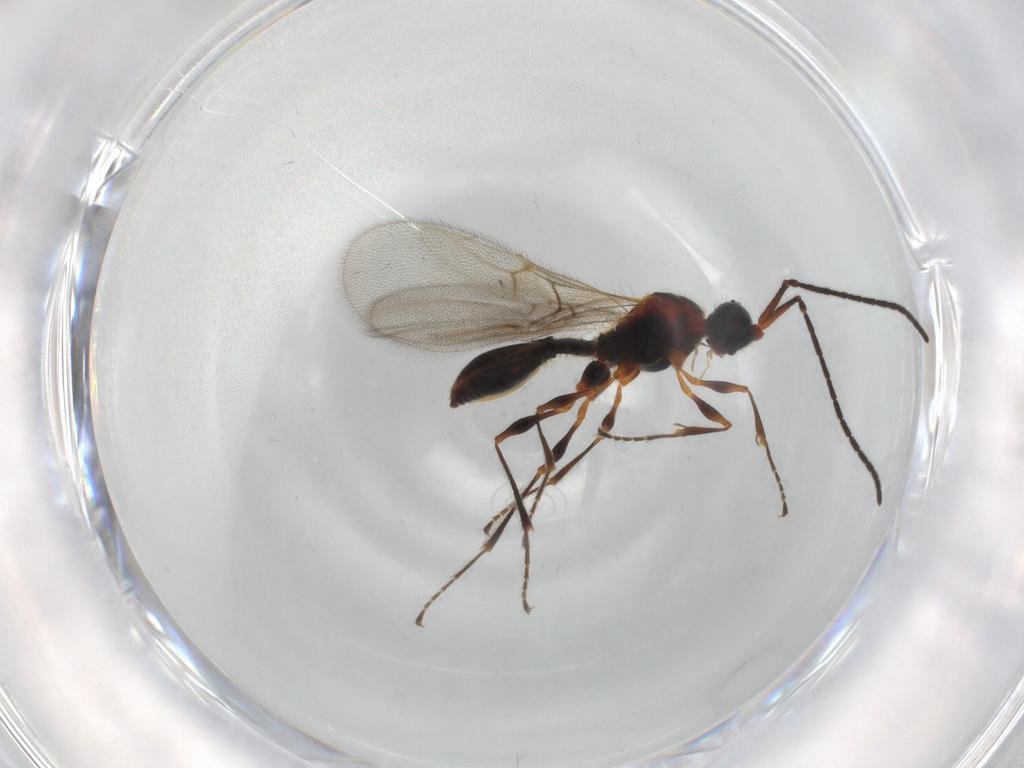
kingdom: Animalia
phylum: Arthropoda
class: Insecta
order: Hymenoptera
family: Diapriidae
